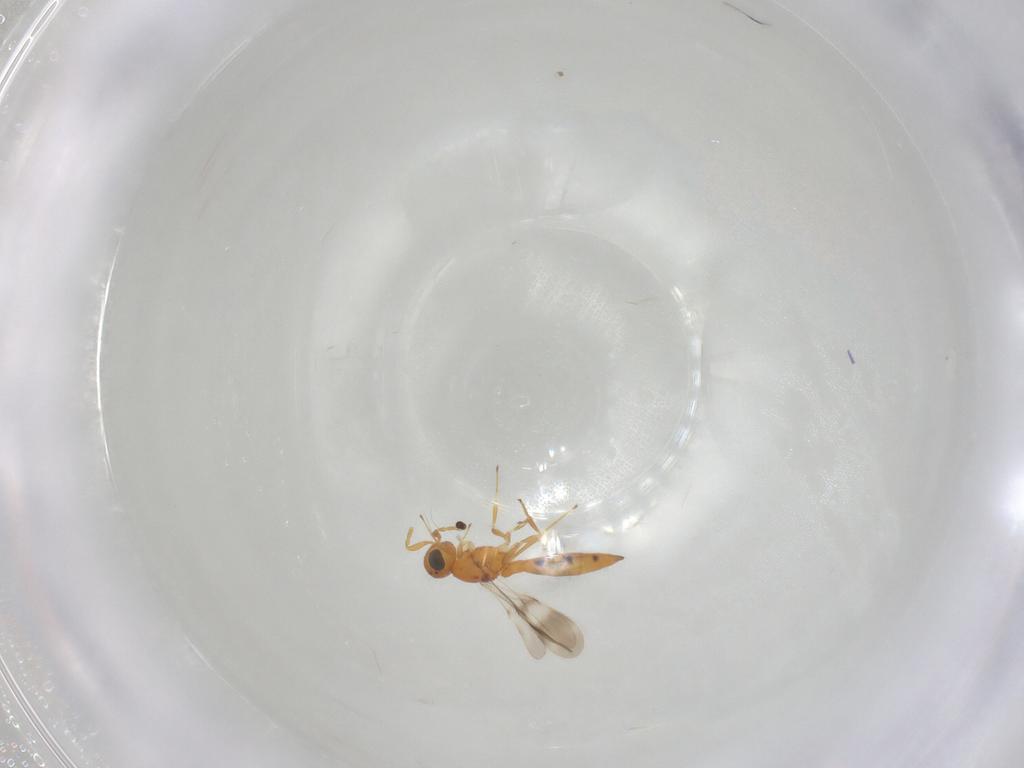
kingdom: Animalia
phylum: Arthropoda
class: Insecta
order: Hymenoptera
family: Scelionidae
